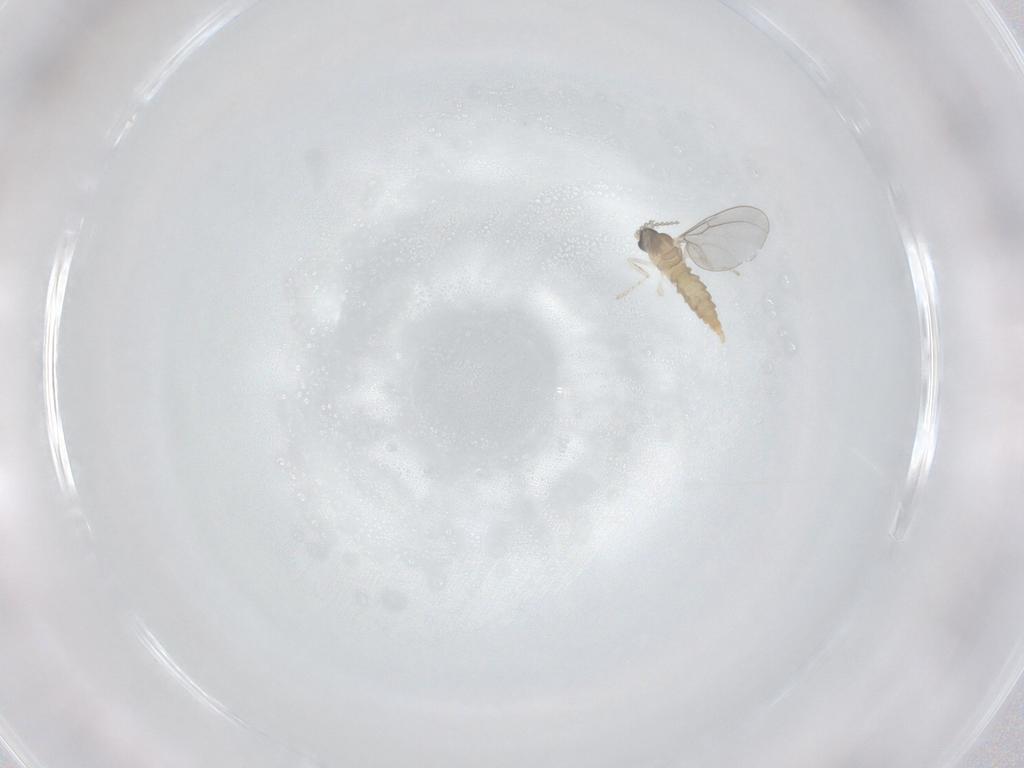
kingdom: Animalia
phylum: Arthropoda
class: Insecta
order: Diptera
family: Cecidomyiidae
